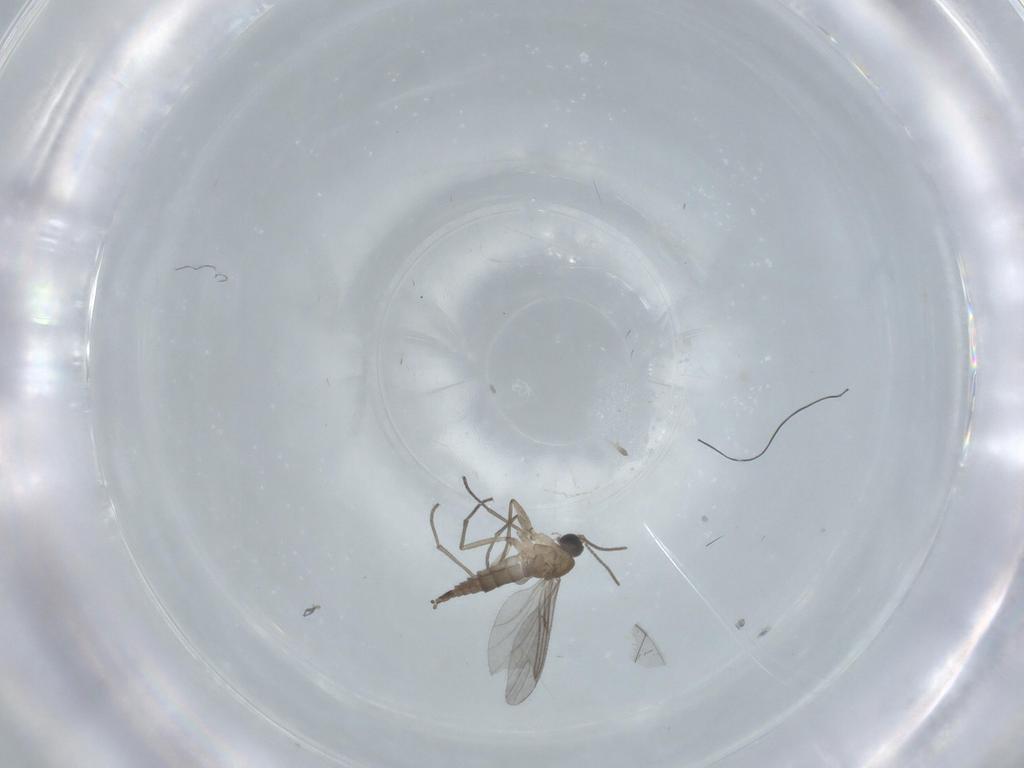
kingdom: Animalia
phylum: Arthropoda
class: Insecta
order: Diptera
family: Sciaridae
